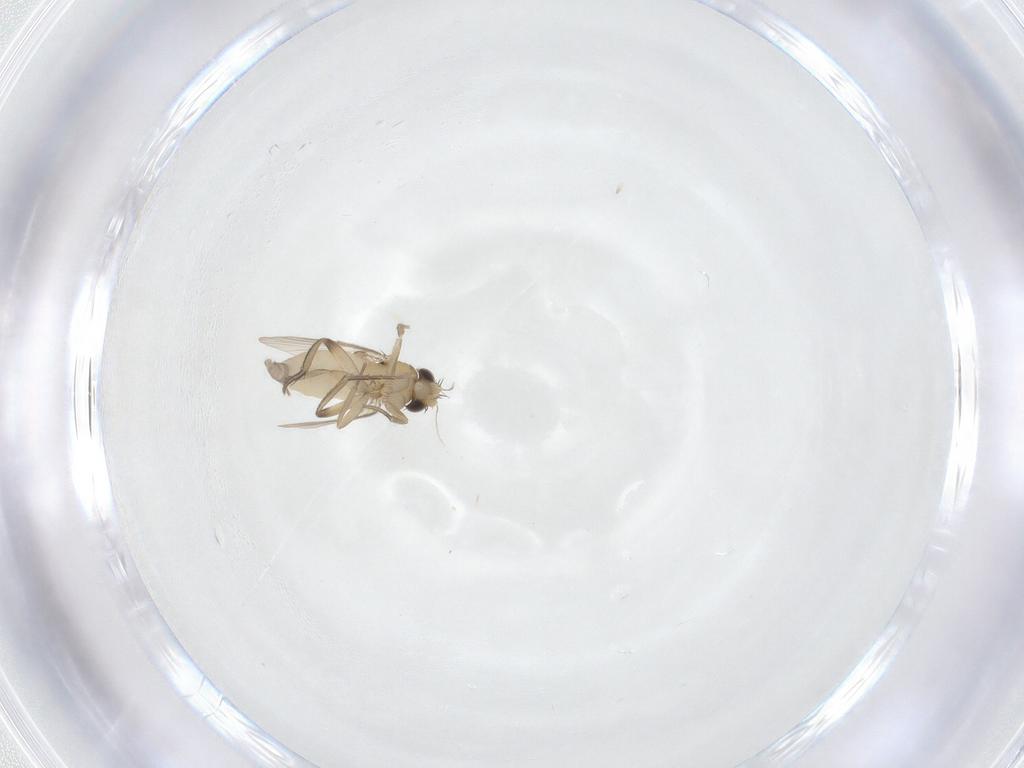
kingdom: Animalia
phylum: Arthropoda
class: Insecta
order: Diptera
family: Phoridae
